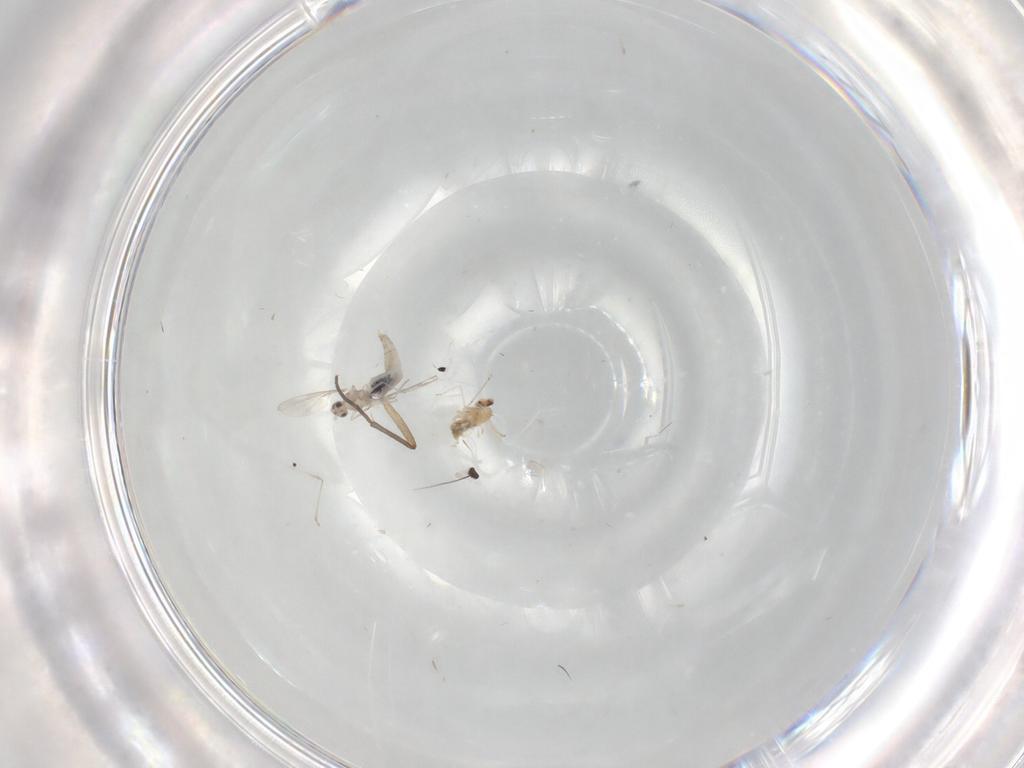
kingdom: Animalia
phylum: Arthropoda
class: Insecta
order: Diptera
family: Cecidomyiidae
